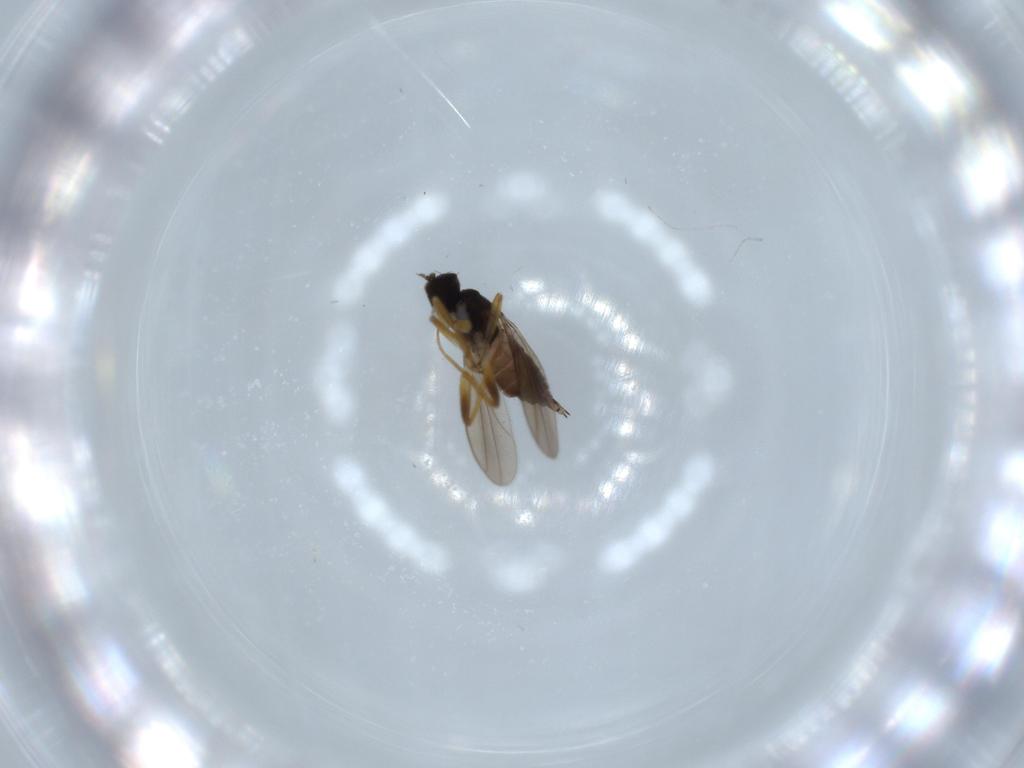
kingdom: Animalia
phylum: Arthropoda
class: Insecta
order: Diptera
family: Hybotidae
